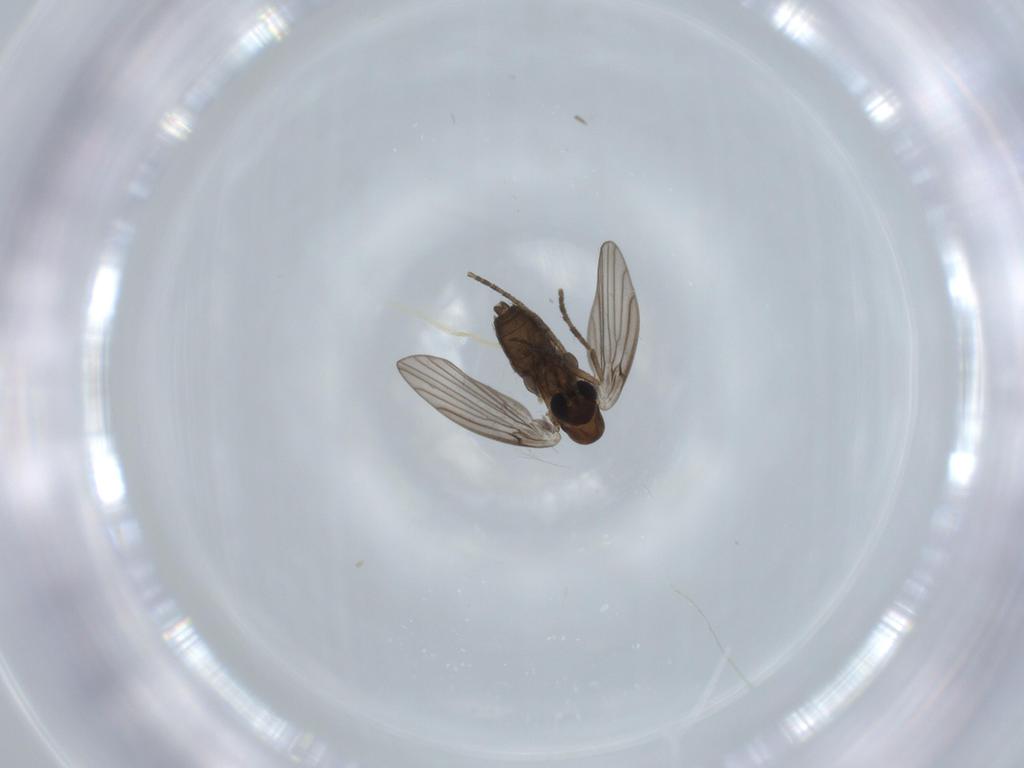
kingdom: Animalia
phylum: Arthropoda
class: Insecta
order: Diptera
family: Psychodidae
